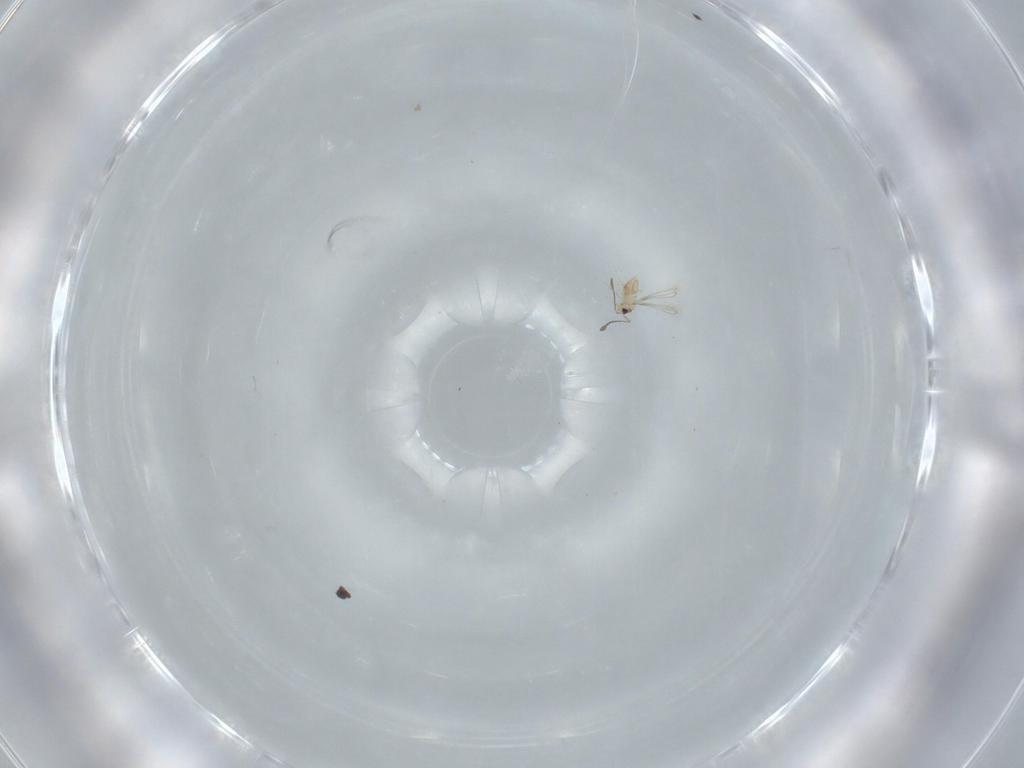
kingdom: Animalia
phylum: Arthropoda
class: Insecta
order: Hymenoptera
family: Mymaridae
